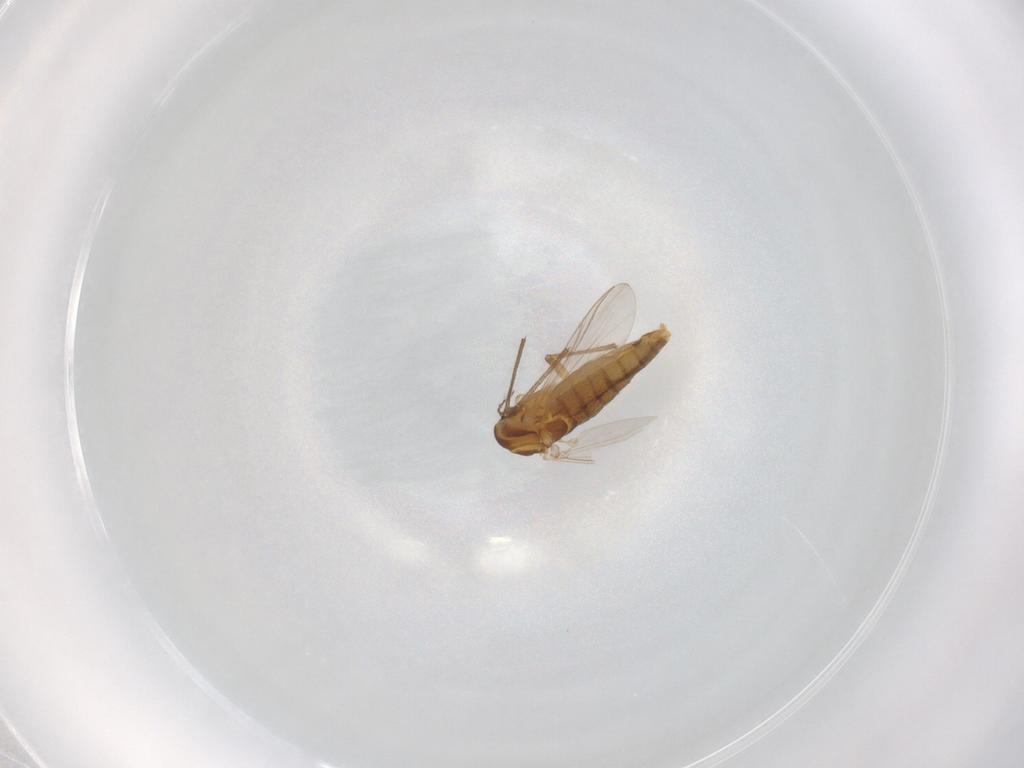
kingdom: Animalia
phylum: Arthropoda
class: Insecta
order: Diptera
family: Chironomidae
